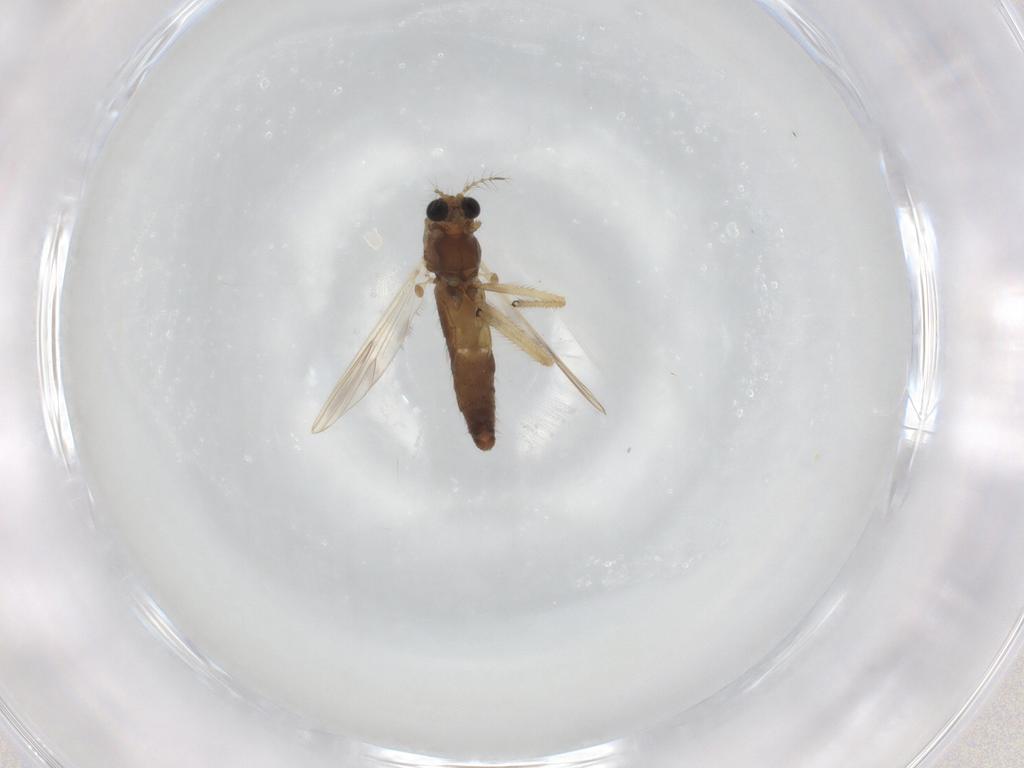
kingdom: Animalia
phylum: Arthropoda
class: Insecta
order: Diptera
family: Chironomidae
